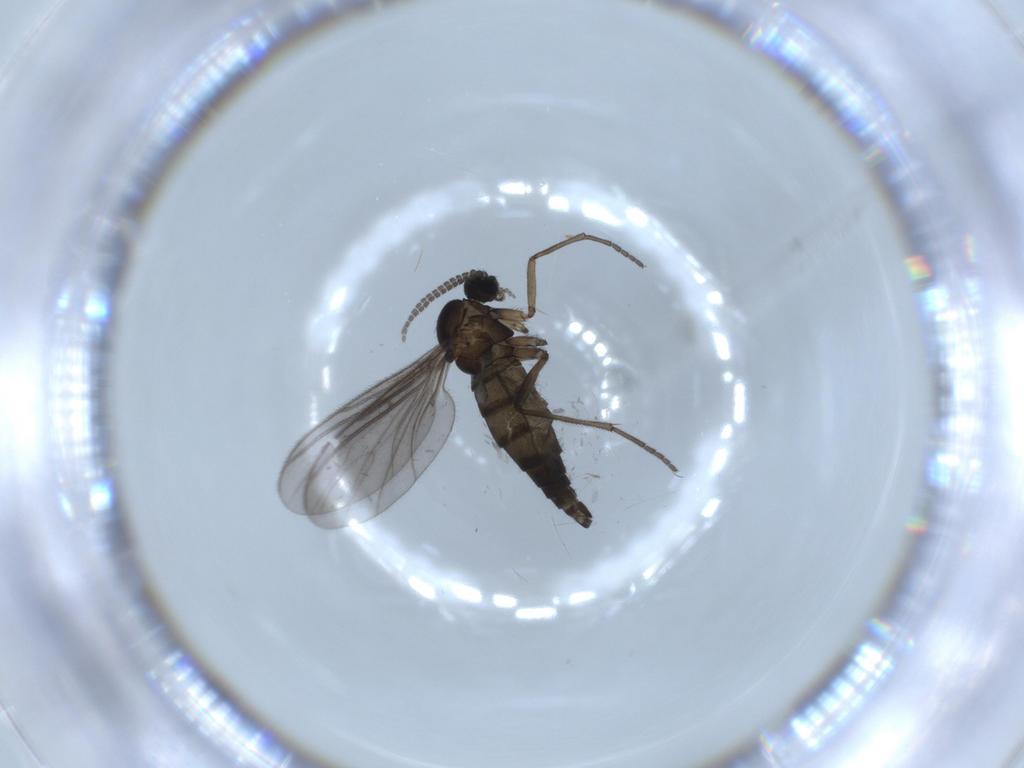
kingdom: Animalia
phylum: Arthropoda
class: Insecta
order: Diptera
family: Sciaridae
